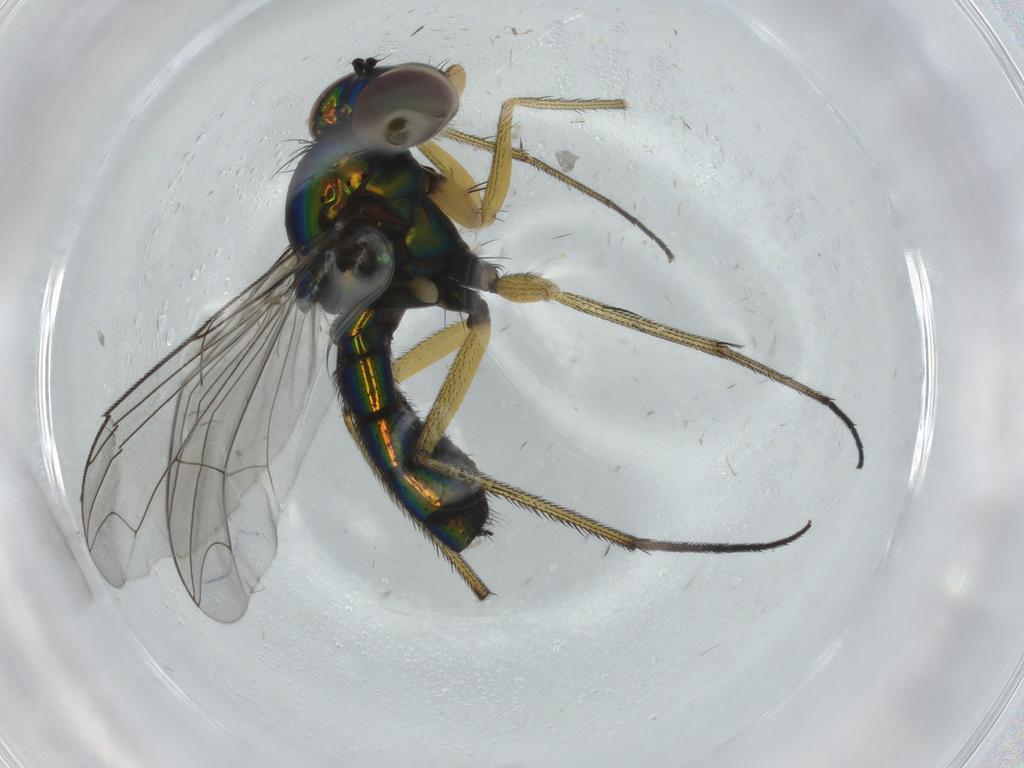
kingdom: Animalia
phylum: Arthropoda
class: Insecta
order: Diptera
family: Dolichopodidae
